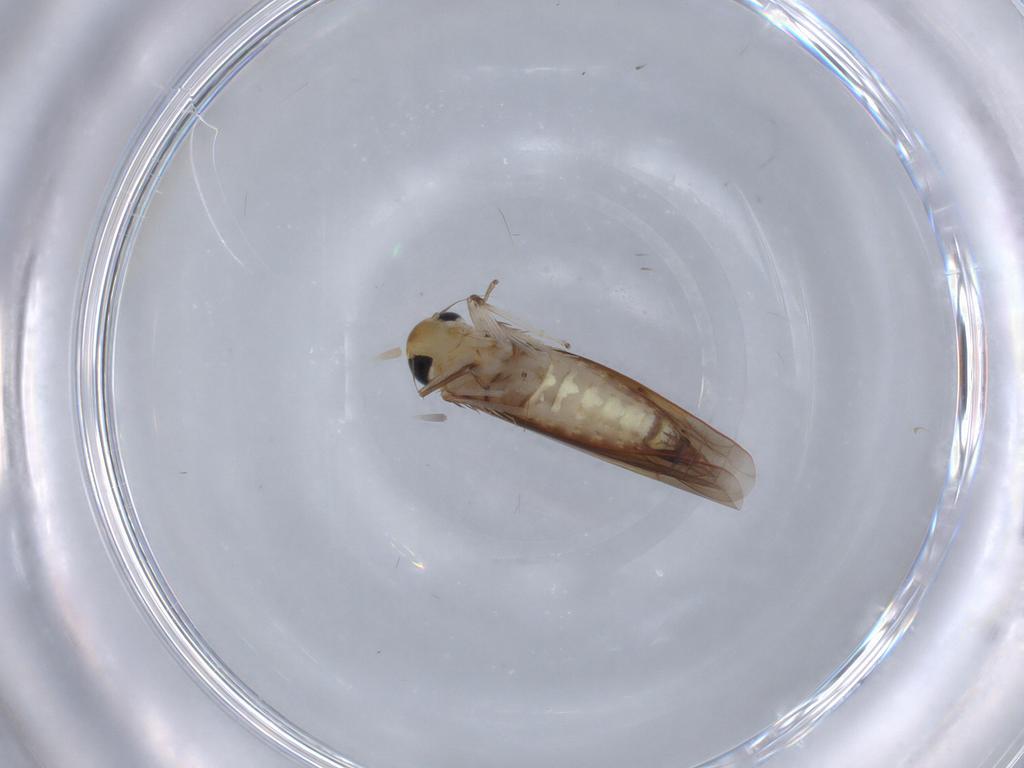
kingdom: Animalia
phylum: Arthropoda
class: Insecta
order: Hemiptera
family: Cicadellidae
